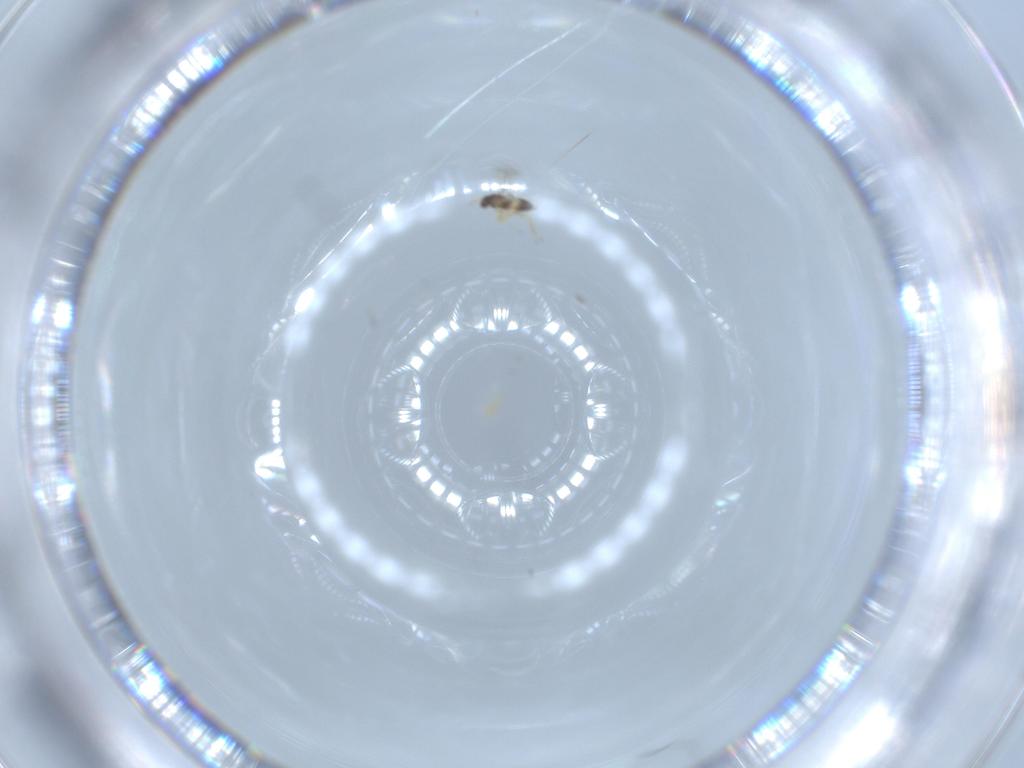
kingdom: Animalia
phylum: Arthropoda
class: Insecta
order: Hymenoptera
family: Mymaridae
